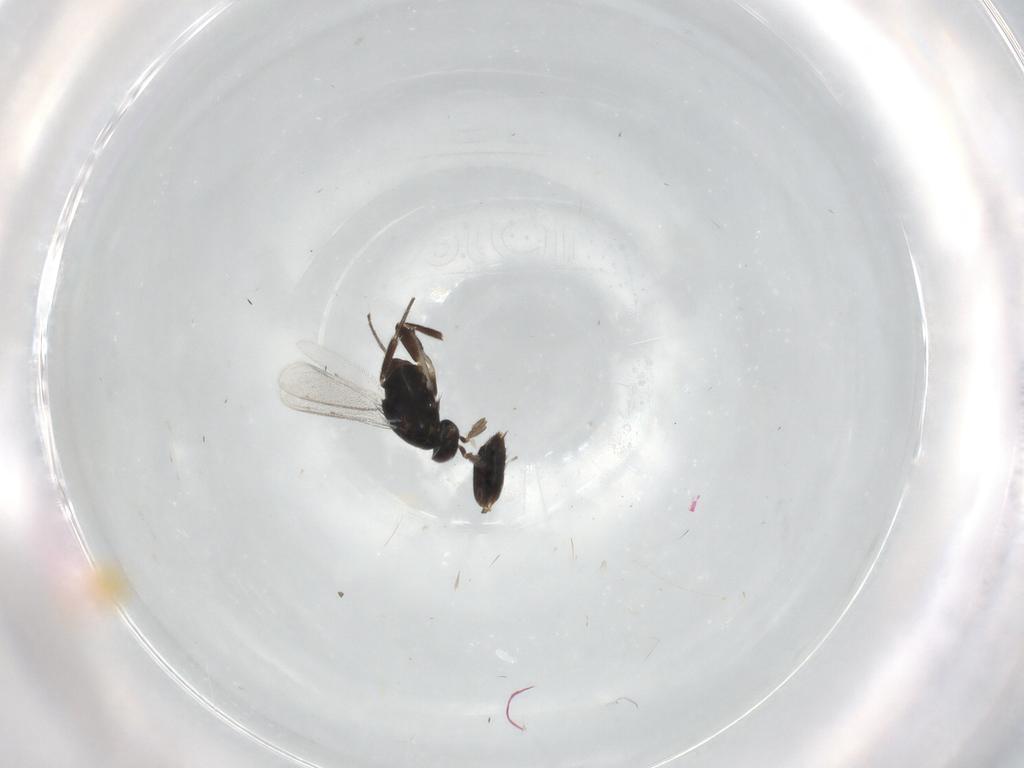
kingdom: Animalia
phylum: Arthropoda
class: Insecta
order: Hymenoptera
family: Eulophidae
